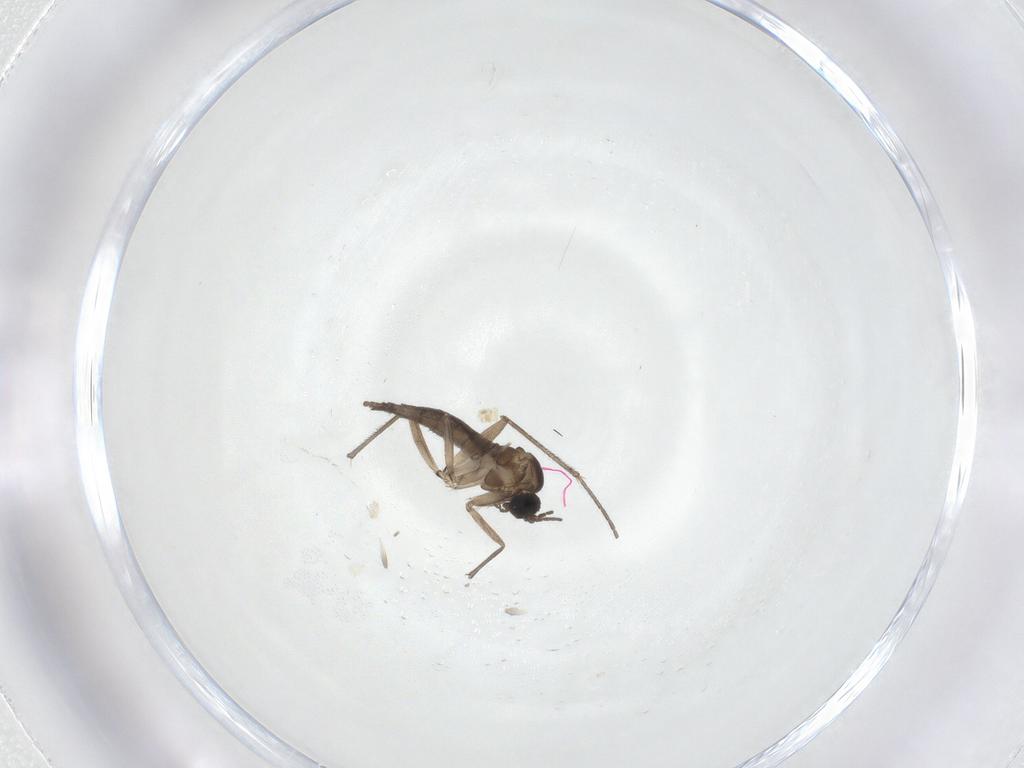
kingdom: Animalia
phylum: Arthropoda
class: Insecta
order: Diptera
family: Sciaridae
